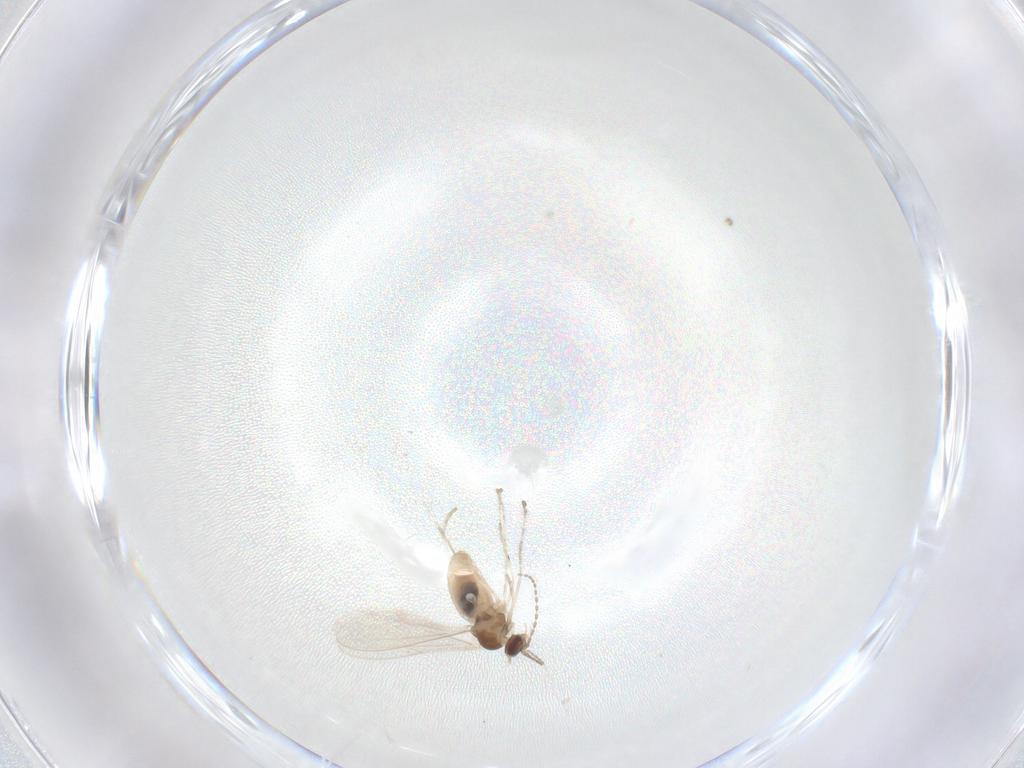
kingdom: Animalia
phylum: Arthropoda
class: Insecta
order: Diptera
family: Cecidomyiidae
